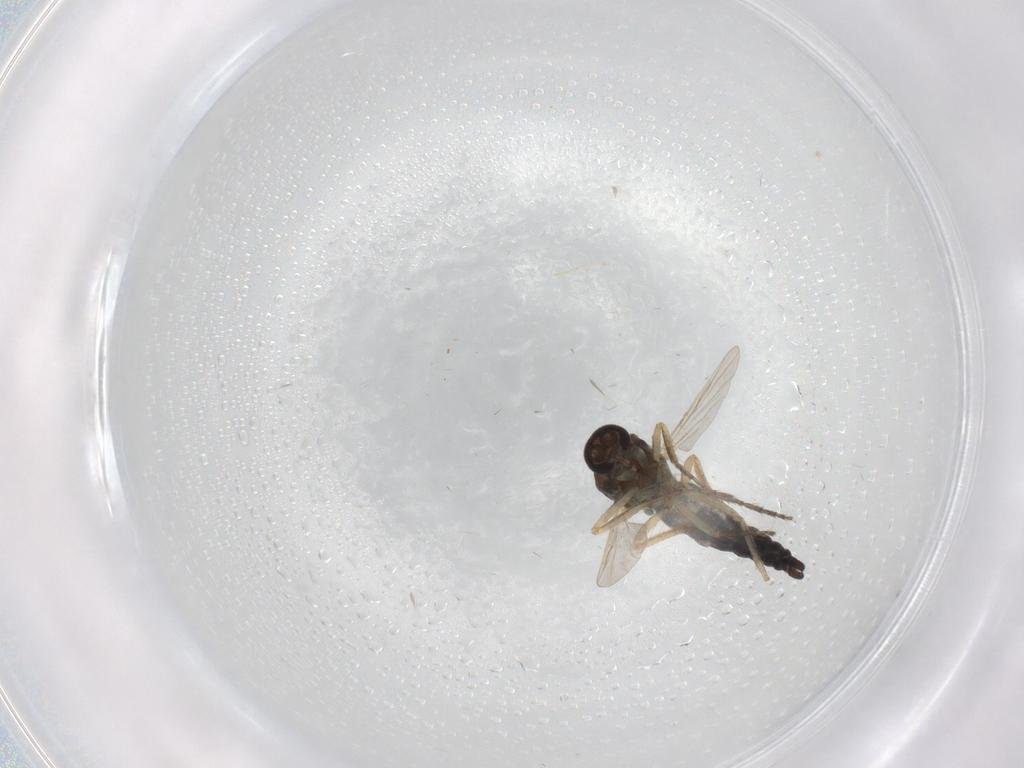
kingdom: Animalia
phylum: Arthropoda
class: Insecta
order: Diptera
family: Ceratopogonidae
